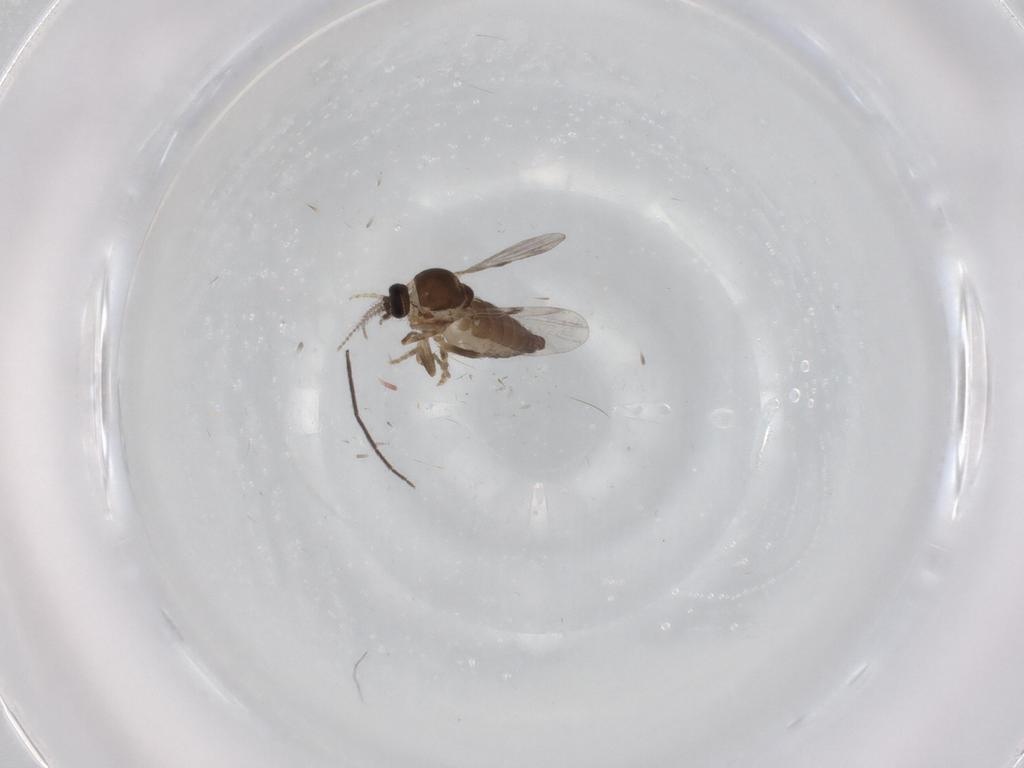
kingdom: Animalia
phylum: Arthropoda
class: Insecta
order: Diptera
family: Ceratopogonidae
